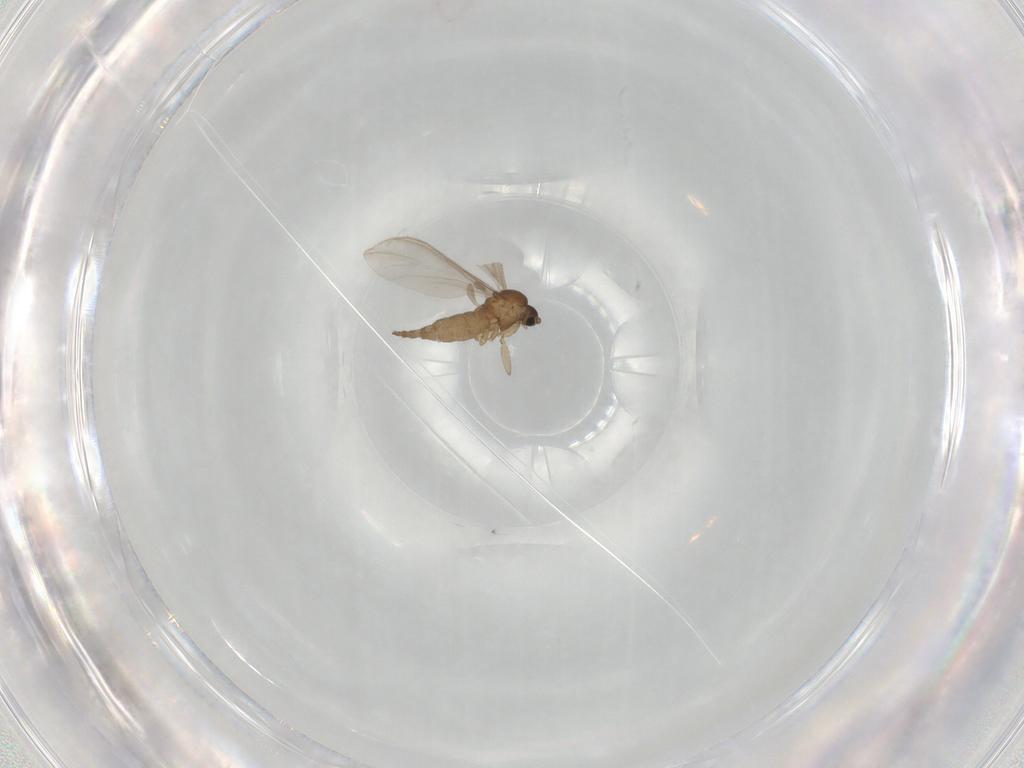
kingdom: Animalia
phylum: Arthropoda
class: Insecta
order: Diptera
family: Sciaridae
